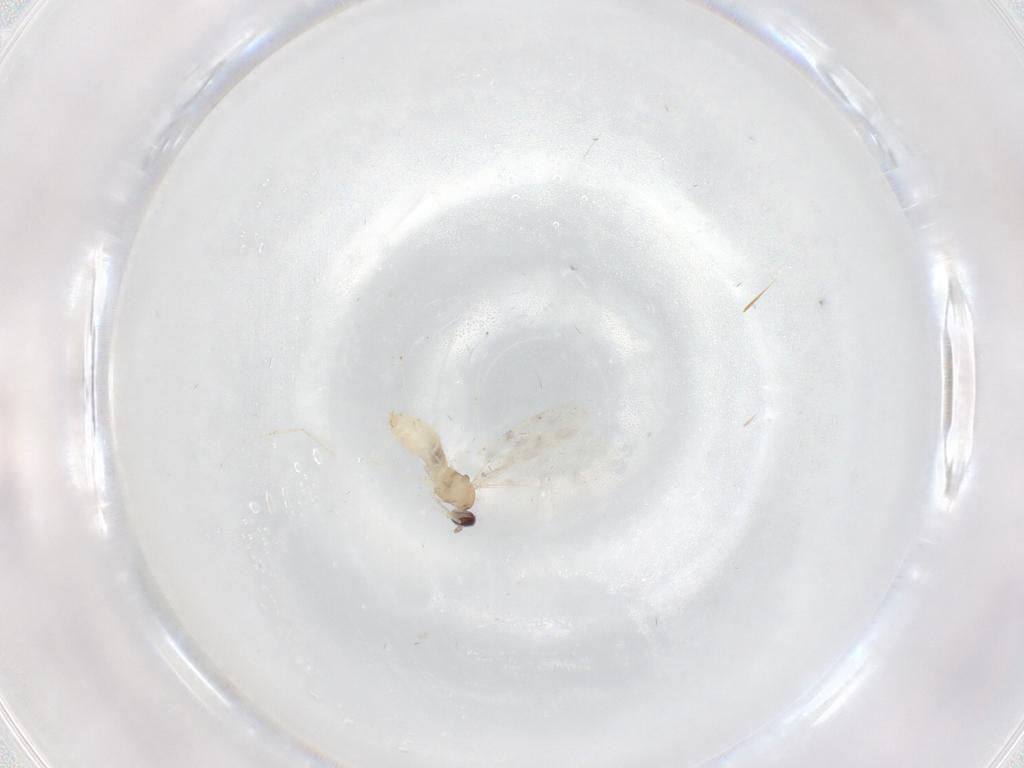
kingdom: Animalia
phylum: Arthropoda
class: Insecta
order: Diptera
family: Sciaridae
